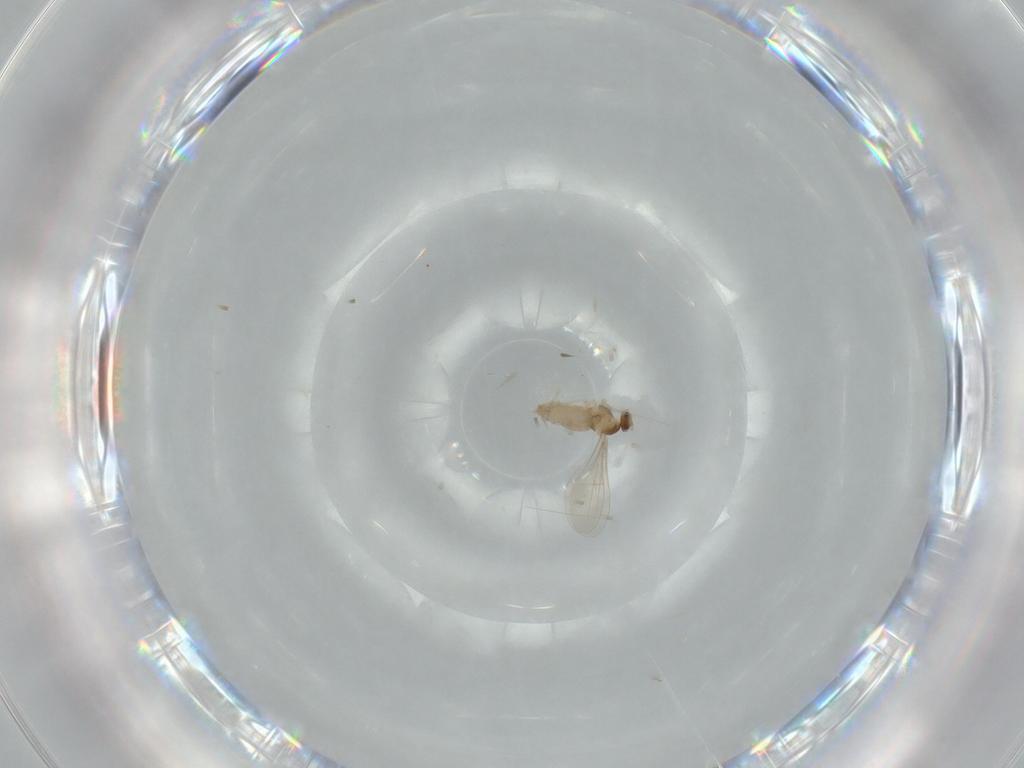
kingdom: Animalia
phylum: Arthropoda
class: Insecta
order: Diptera
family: Cecidomyiidae
